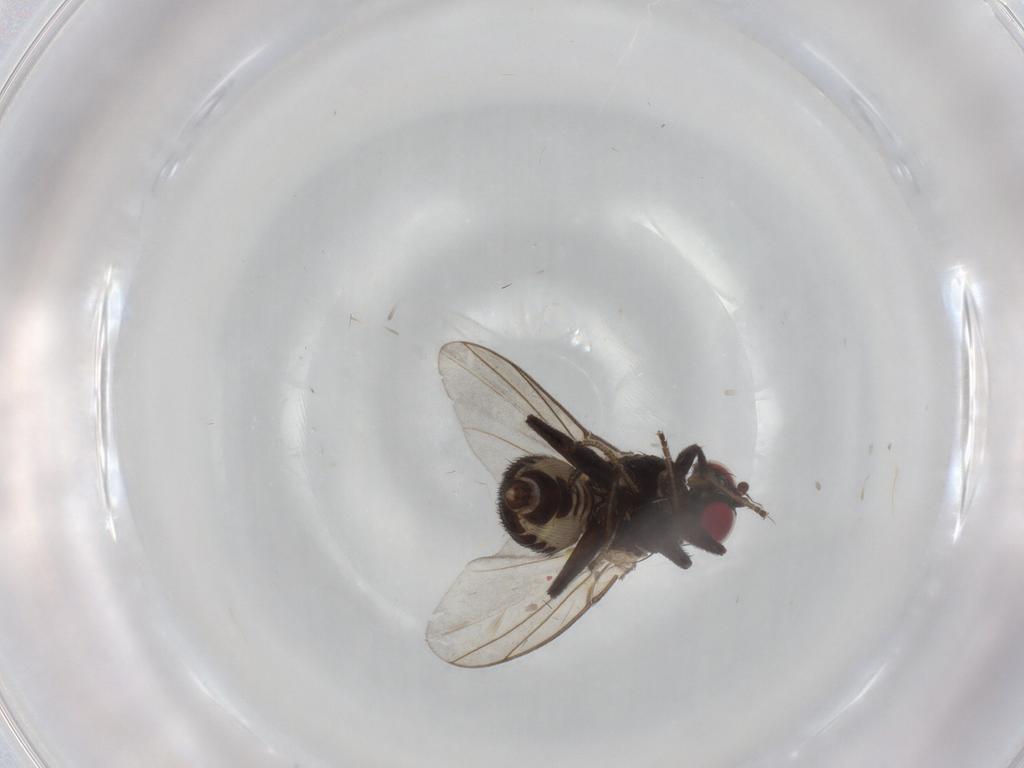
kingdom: Animalia
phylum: Arthropoda
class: Insecta
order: Diptera
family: Agromyzidae
